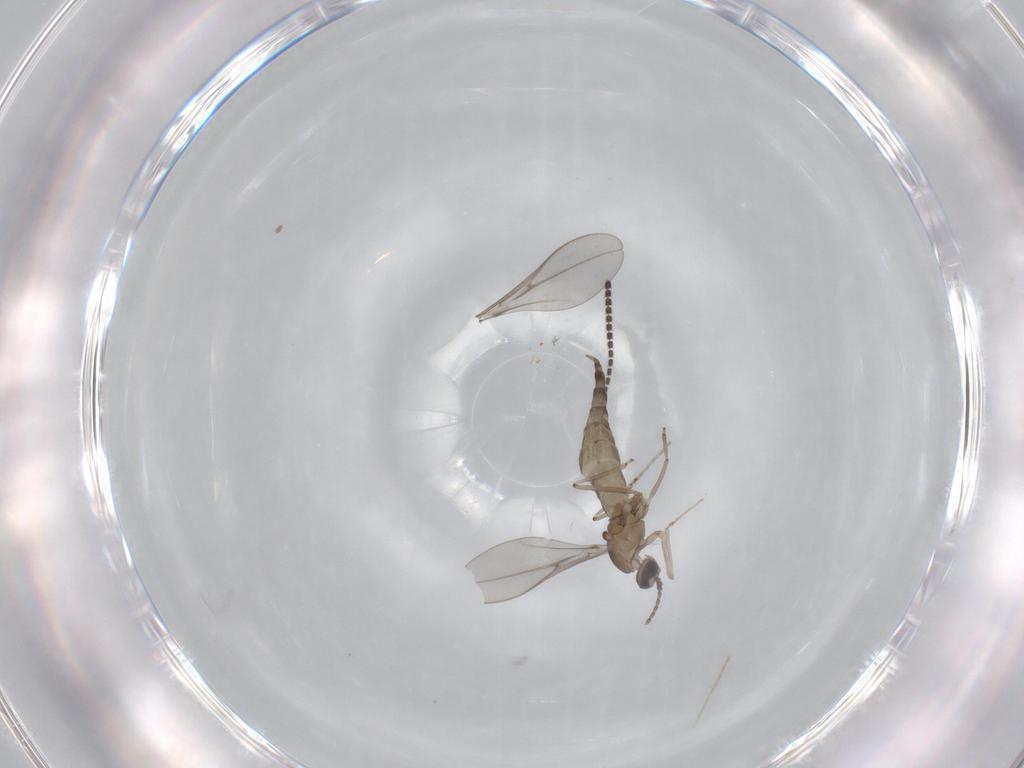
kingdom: Animalia
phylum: Arthropoda
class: Insecta
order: Diptera
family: Cecidomyiidae
